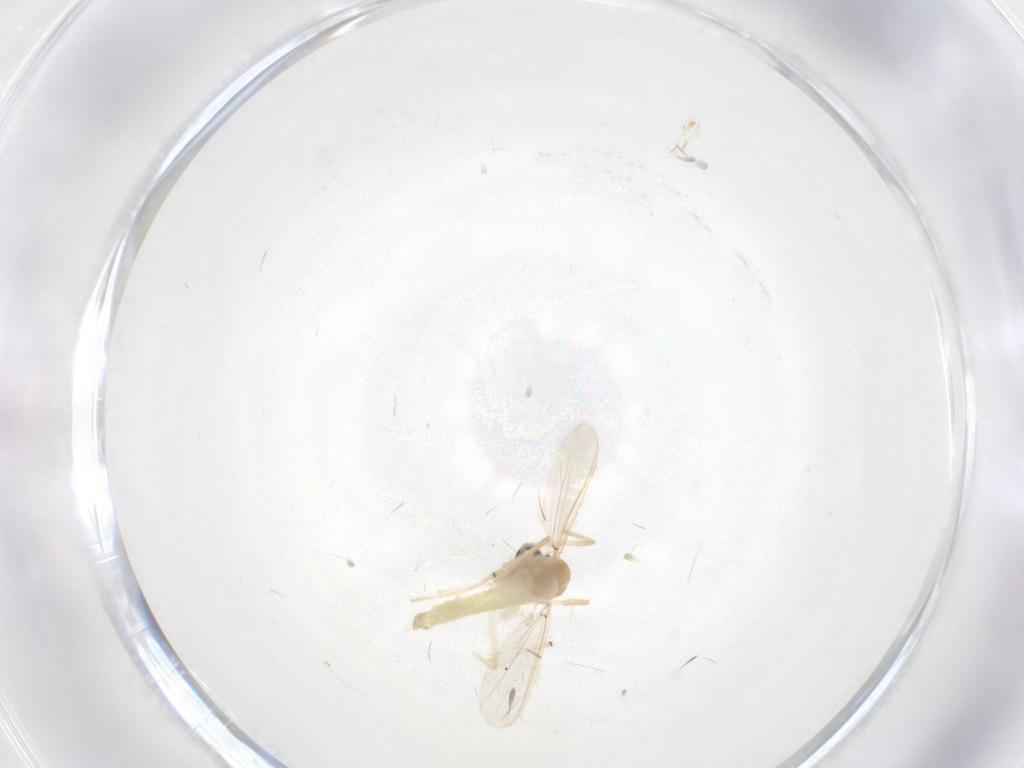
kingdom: Animalia
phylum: Arthropoda
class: Insecta
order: Diptera
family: Chironomidae
